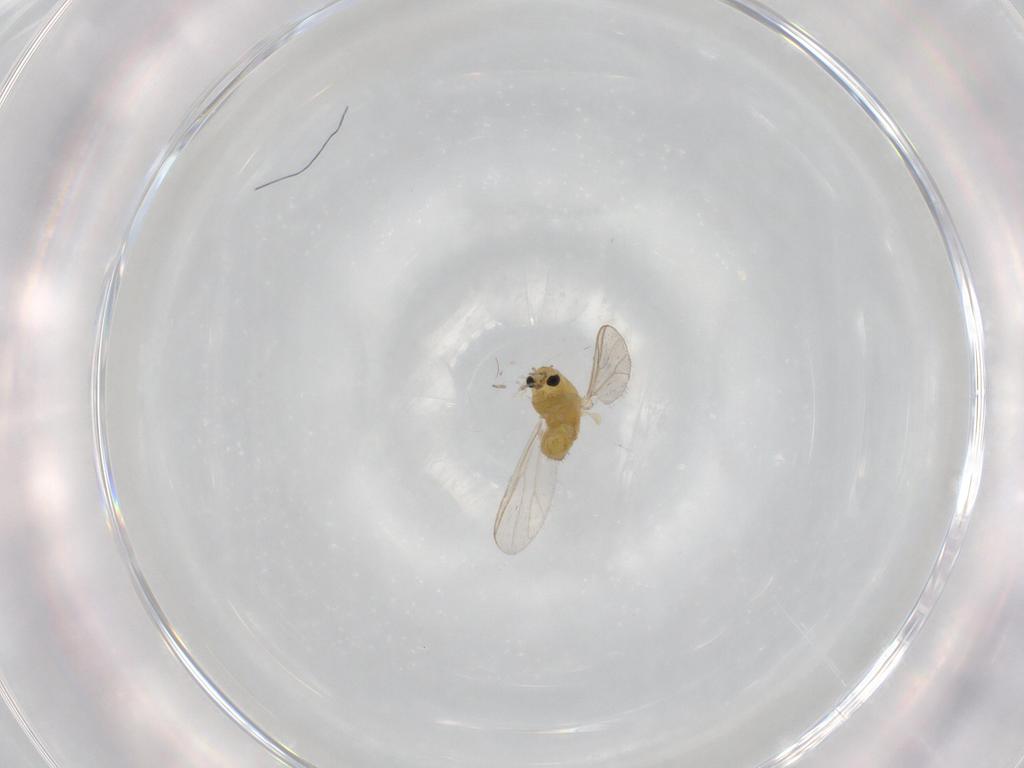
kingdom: Animalia
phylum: Arthropoda
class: Insecta
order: Diptera
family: Chironomidae
